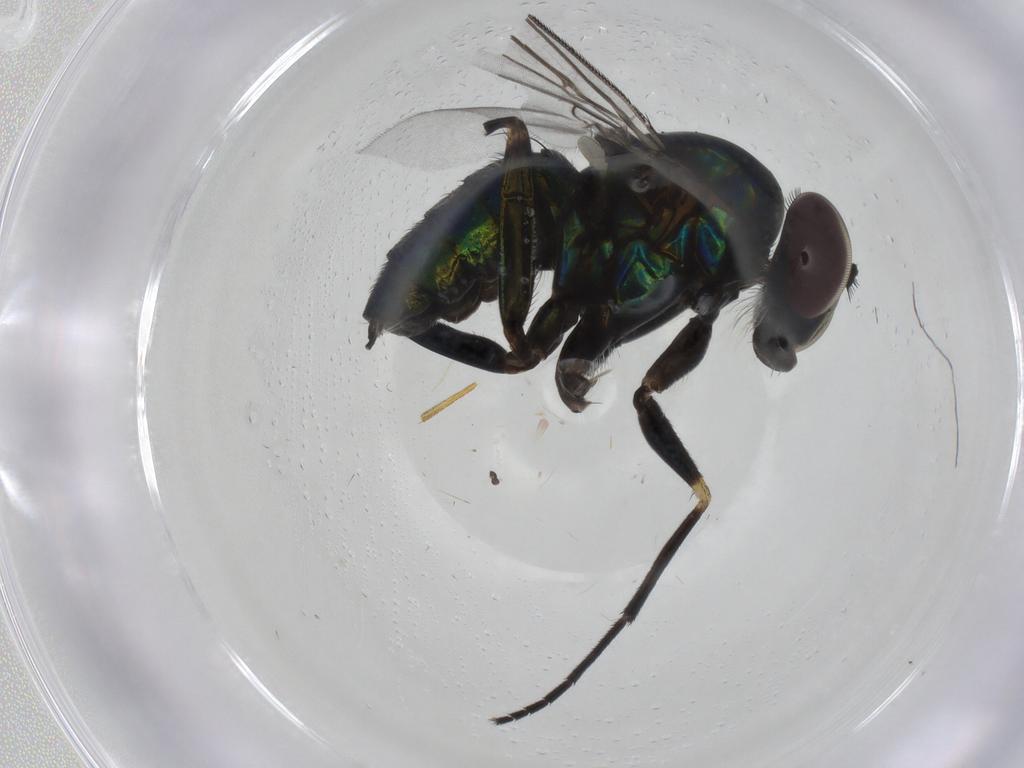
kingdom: Animalia
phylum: Arthropoda
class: Insecta
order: Diptera
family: Dolichopodidae
